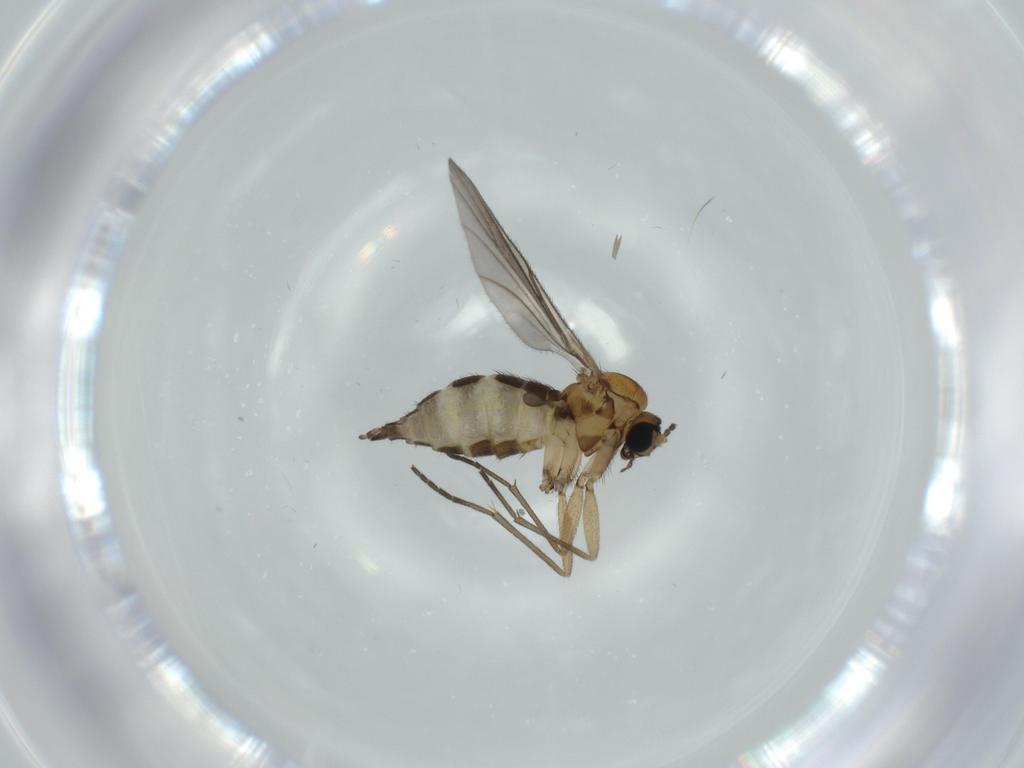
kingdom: Animalia
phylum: Arthropoda
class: Insecta
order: Diptera
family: Sciaridae
